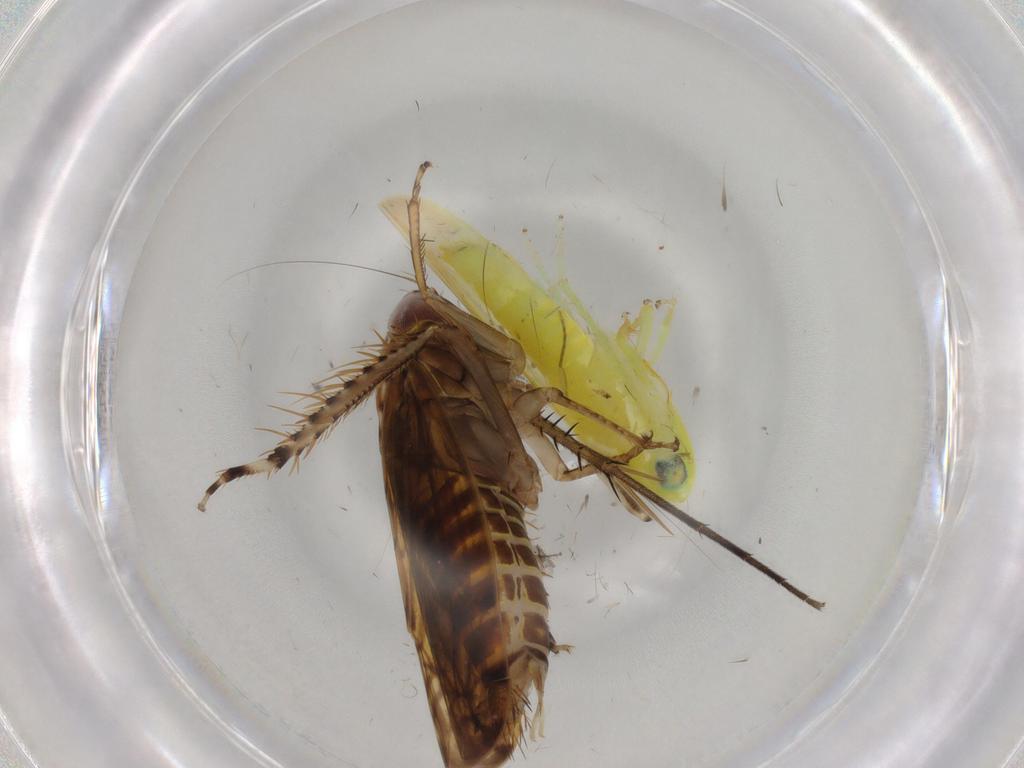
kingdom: Animalia
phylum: Arthropoda
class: Insecta
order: Hemiptera
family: Cicadellidae
